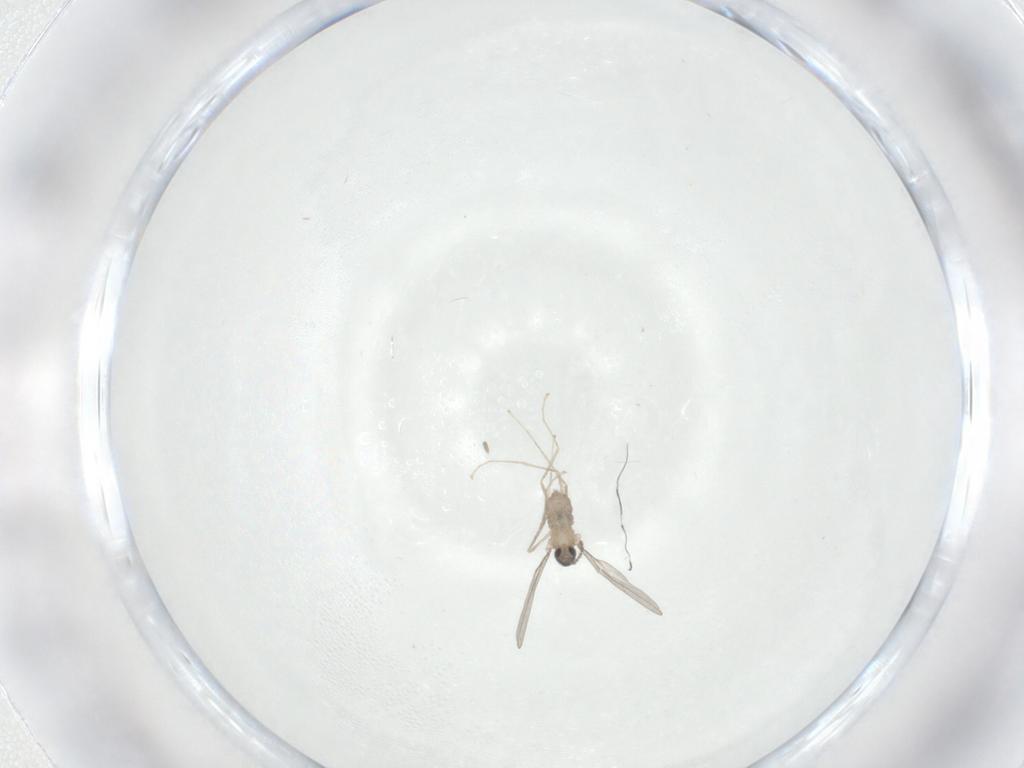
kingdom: Animalia
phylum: Arthropoda
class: Insecta
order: Diptera
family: Cecidomyiidae
